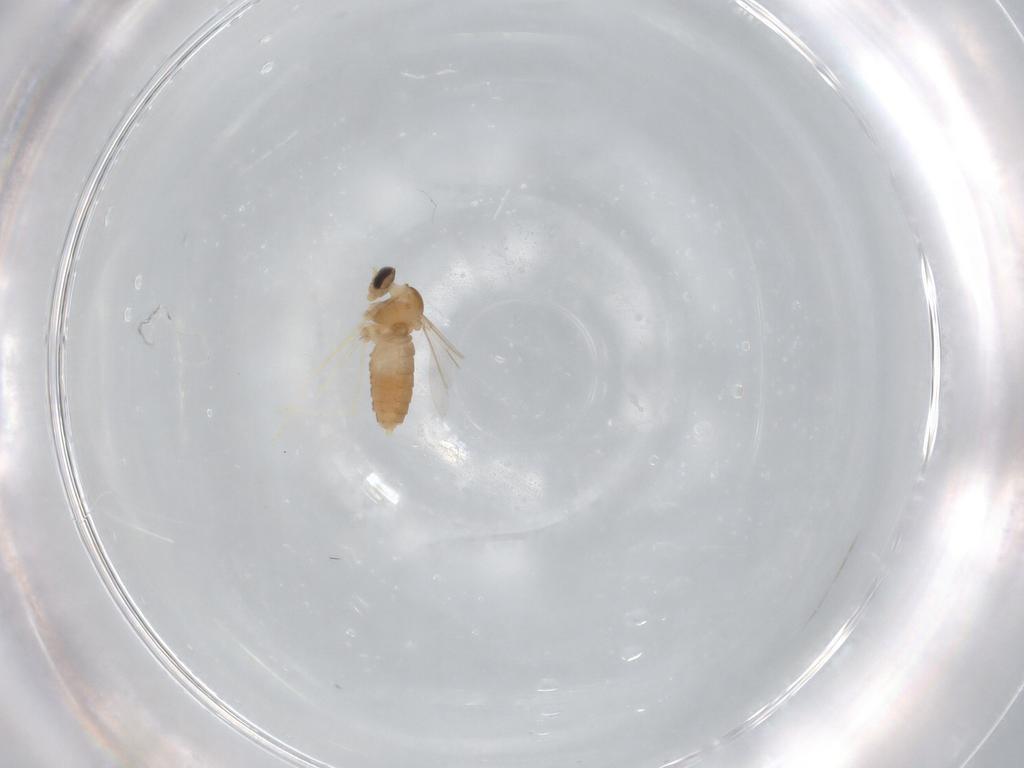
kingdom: Animalia
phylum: Arthropoda
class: Insecta
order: Diptera
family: Cecidomyiidae
